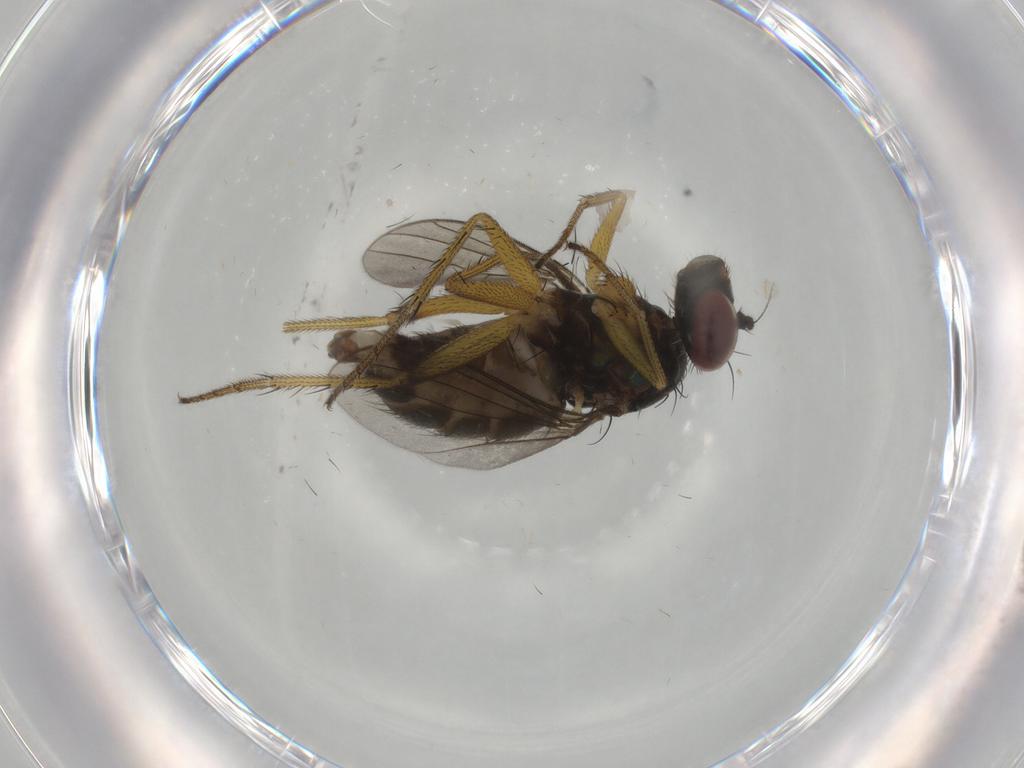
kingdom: Animalia
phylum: Arthropoda
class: Insecta
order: Diptera
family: Dolichopodidae
